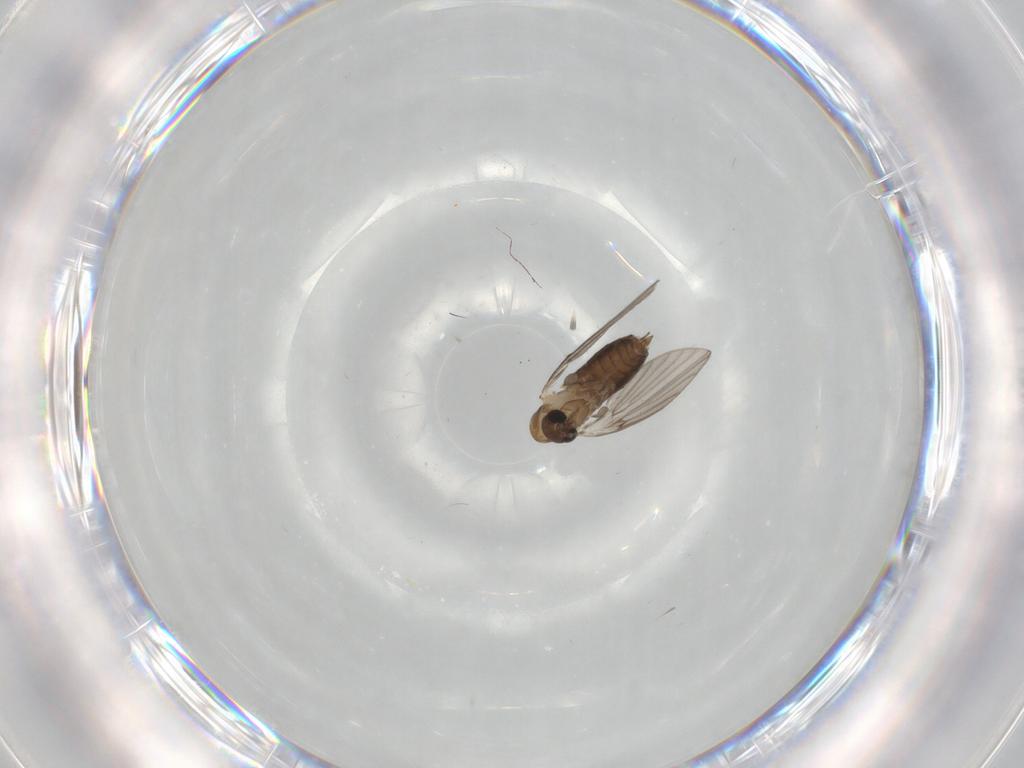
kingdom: Animalia
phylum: Arthropoda
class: Insecta
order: Diptera
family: Psychodidae
